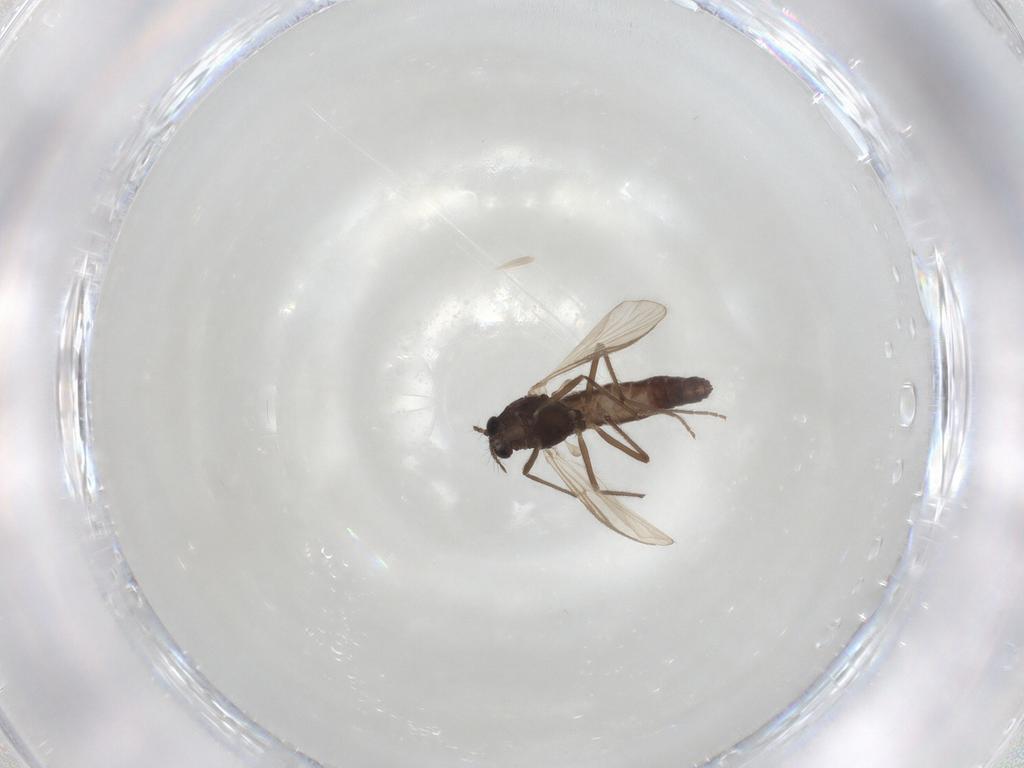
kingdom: Animalia
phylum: Arthropoda
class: Insecta
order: Diptera
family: Chironomidae
